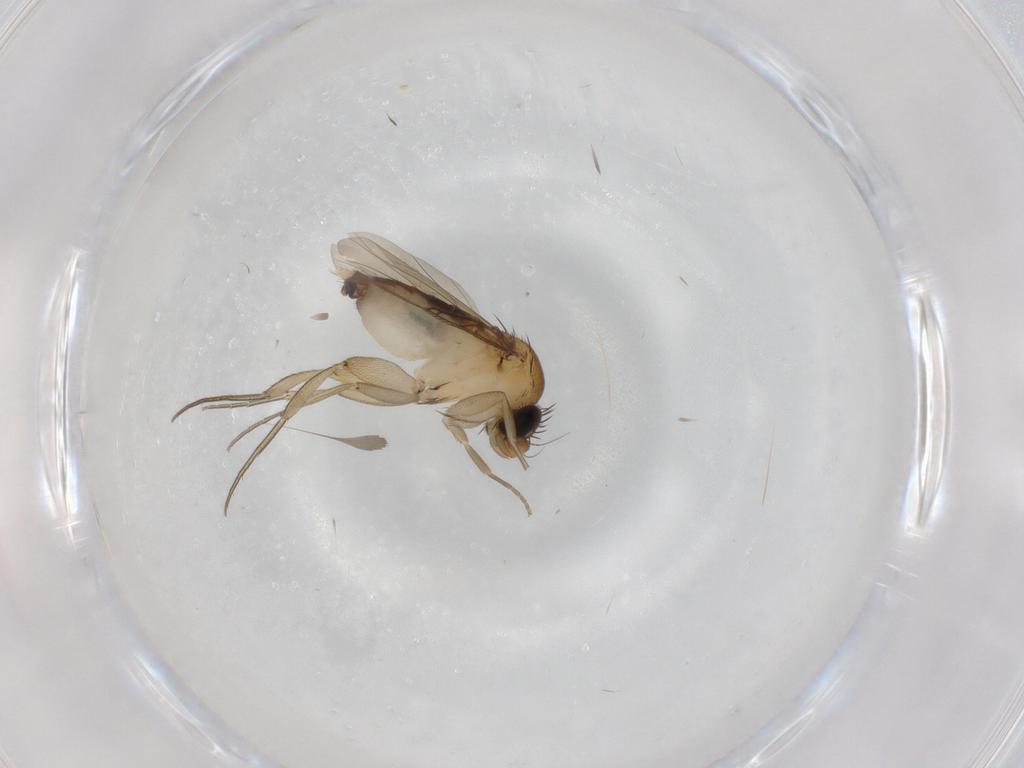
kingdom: Animalia
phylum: Arthropoda
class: Insecta
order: Diptera
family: Phoridae
